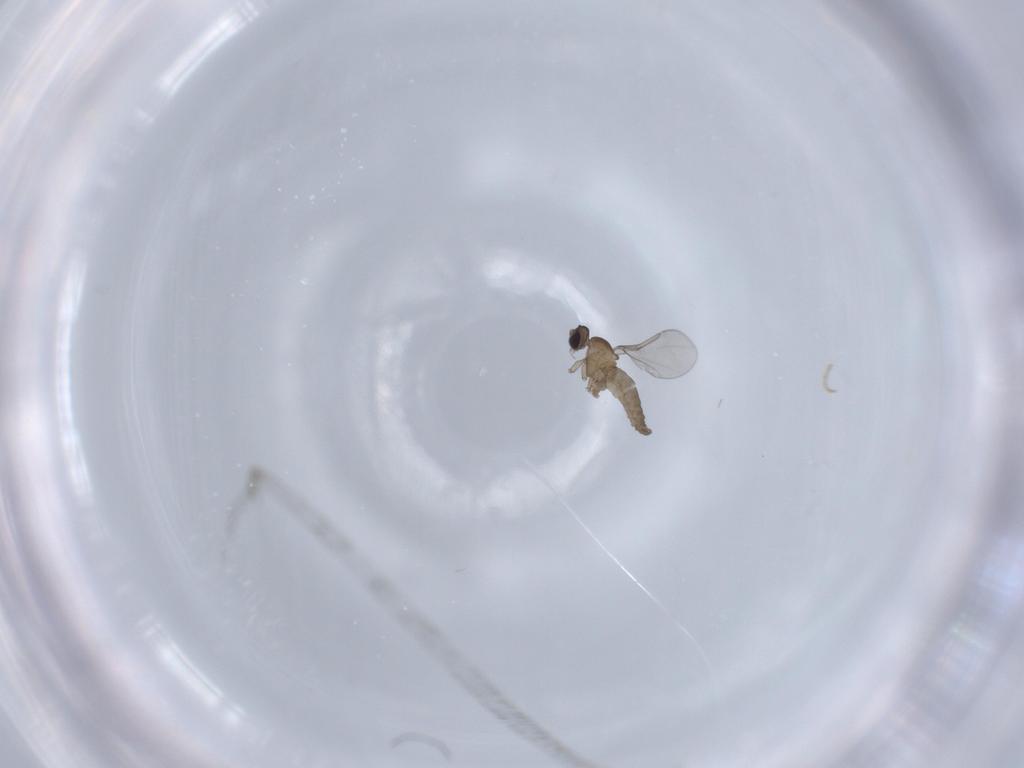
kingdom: Animalia
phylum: Arthropoda
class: Insecta
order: Diptera
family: Cecidomyiidae
